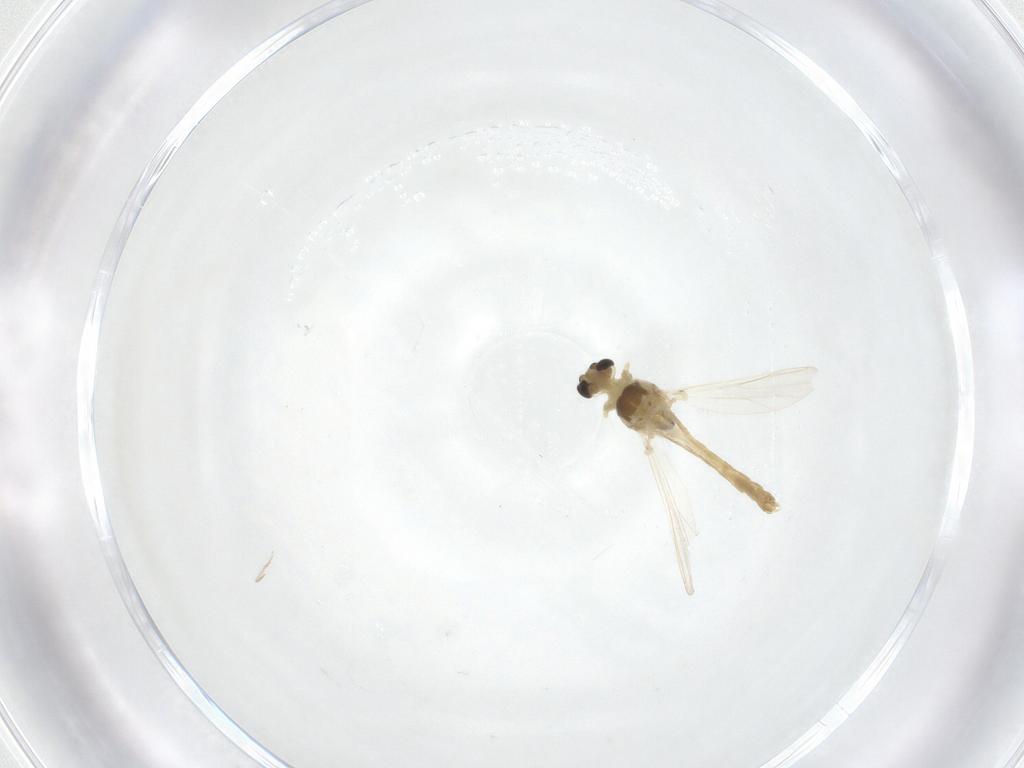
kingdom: Animalia
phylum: Arthropoda
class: Insecta
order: Diptera
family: Chironomidae
